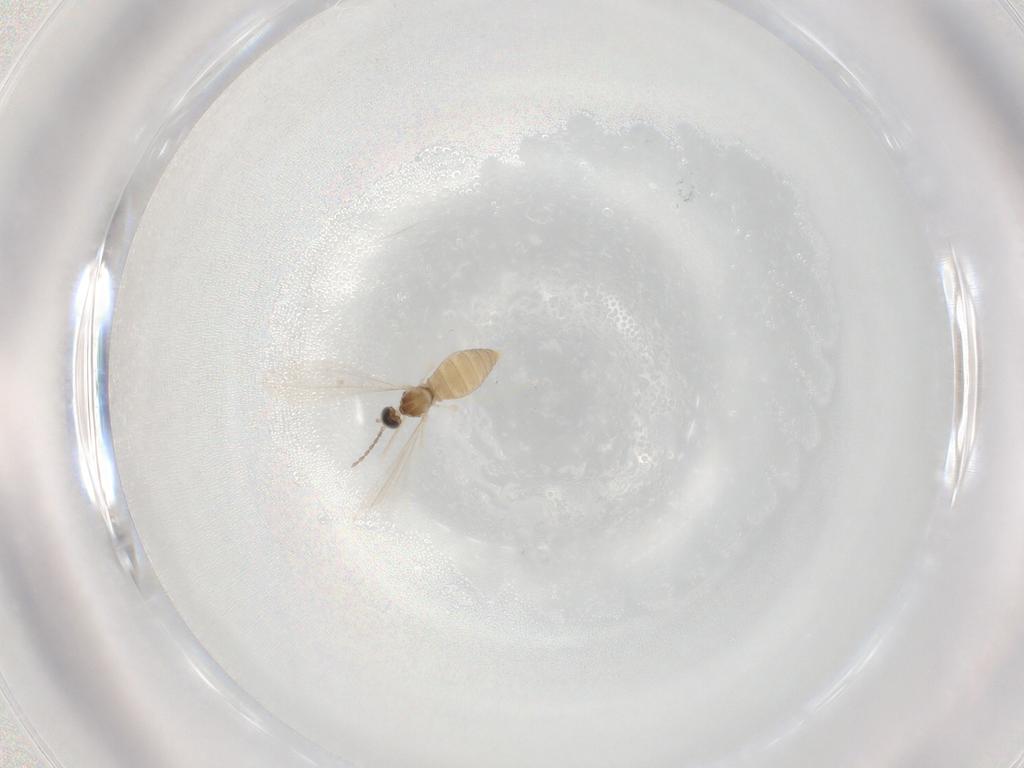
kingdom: Animalia
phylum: Arthropoda
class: Insecta
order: Diptera
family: Cecidomyiidae
